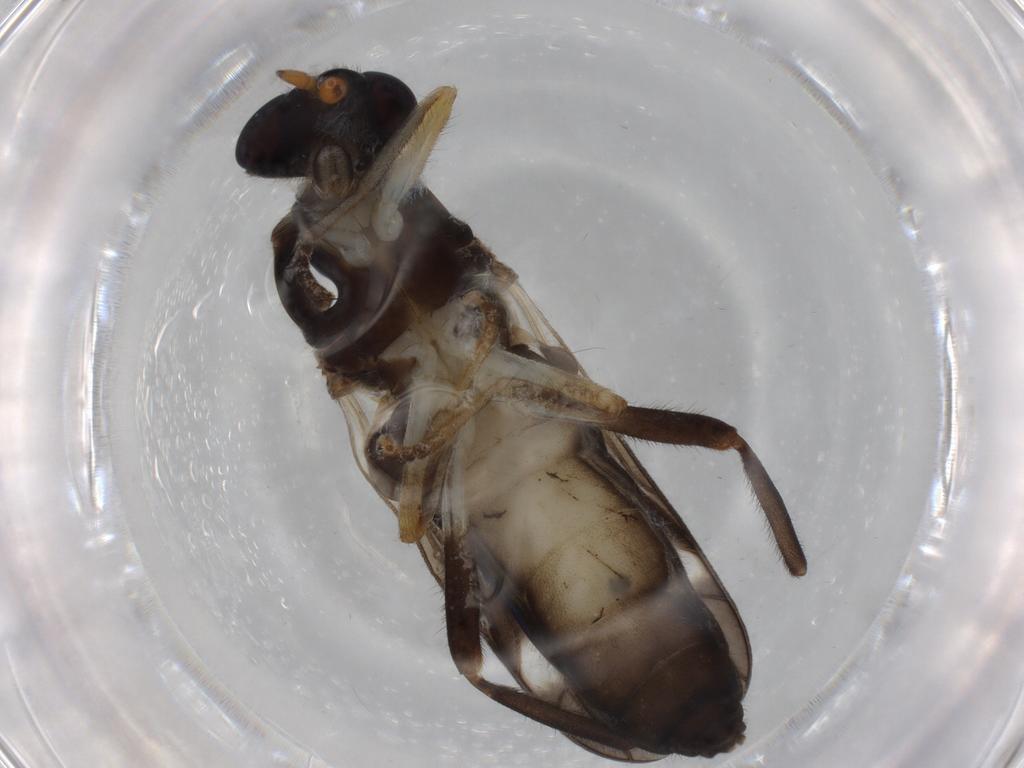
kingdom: Animalia
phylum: Arthropoda
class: Insecta
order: Diptera
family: Stratiomyidae
